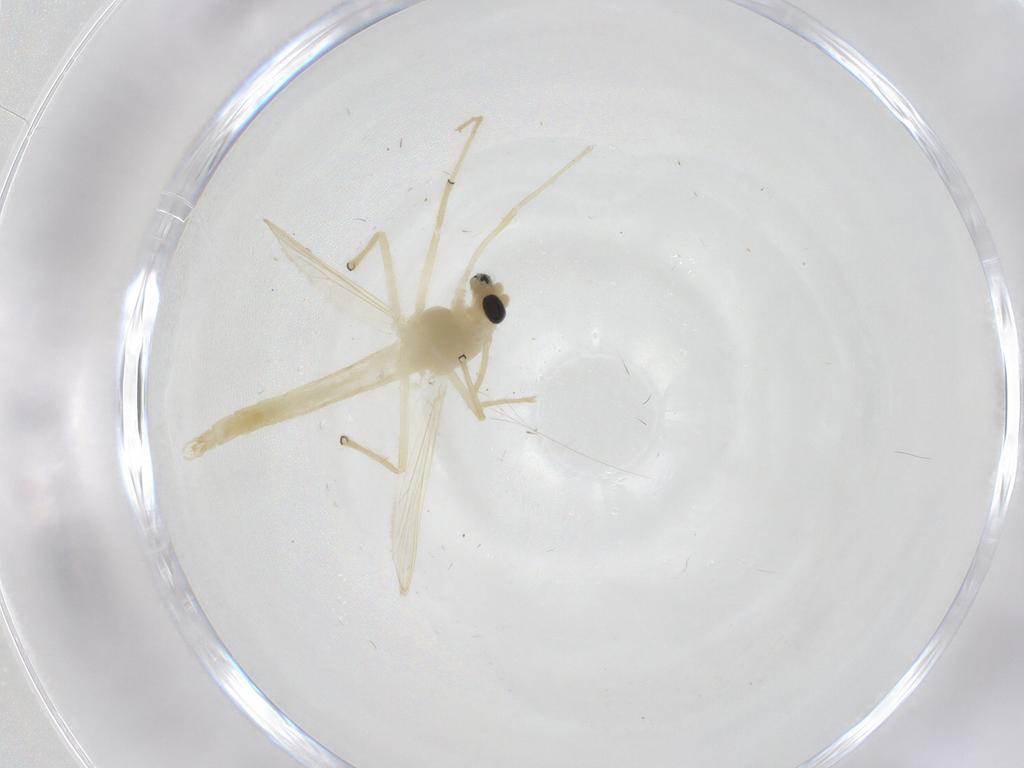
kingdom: Animalia
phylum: Arthropoda
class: Insecta
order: Diptera
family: Chironomidae
